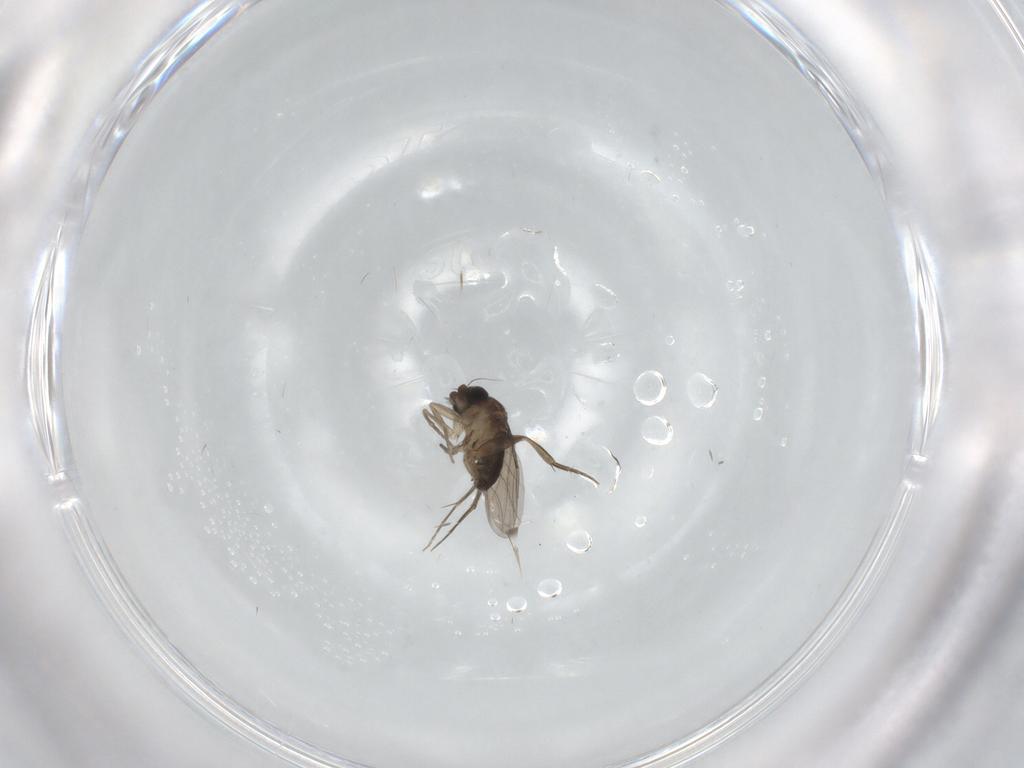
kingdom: Animalia
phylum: Arthropoda
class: Insecta
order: Diptera
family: Phoridae
